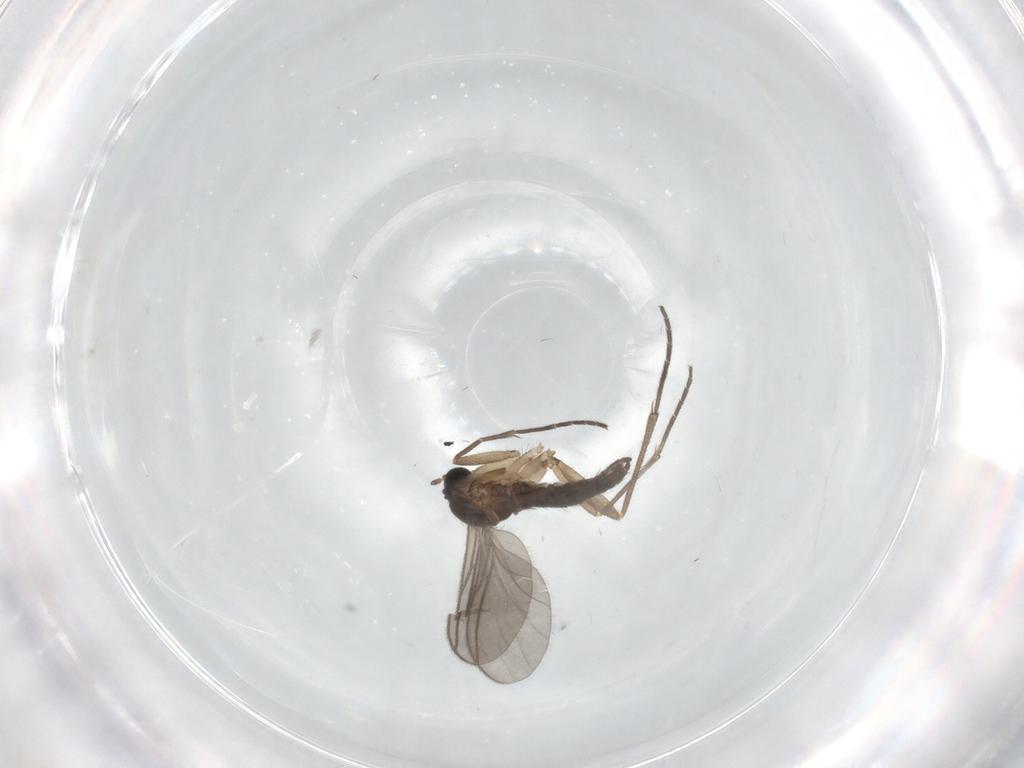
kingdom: Animalia
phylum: Arthropoda
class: Insecta
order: Diptera
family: Sciaridae
